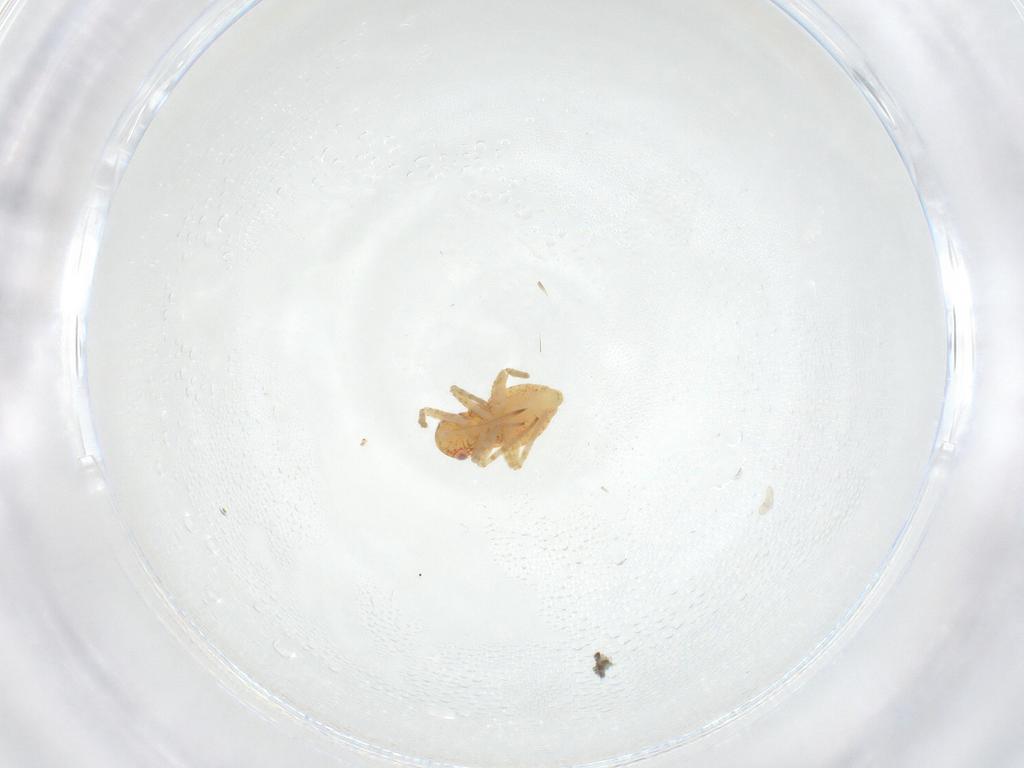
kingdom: Animalia
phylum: Arthropoda
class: Insecta
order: Hemiptera
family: Miridae
